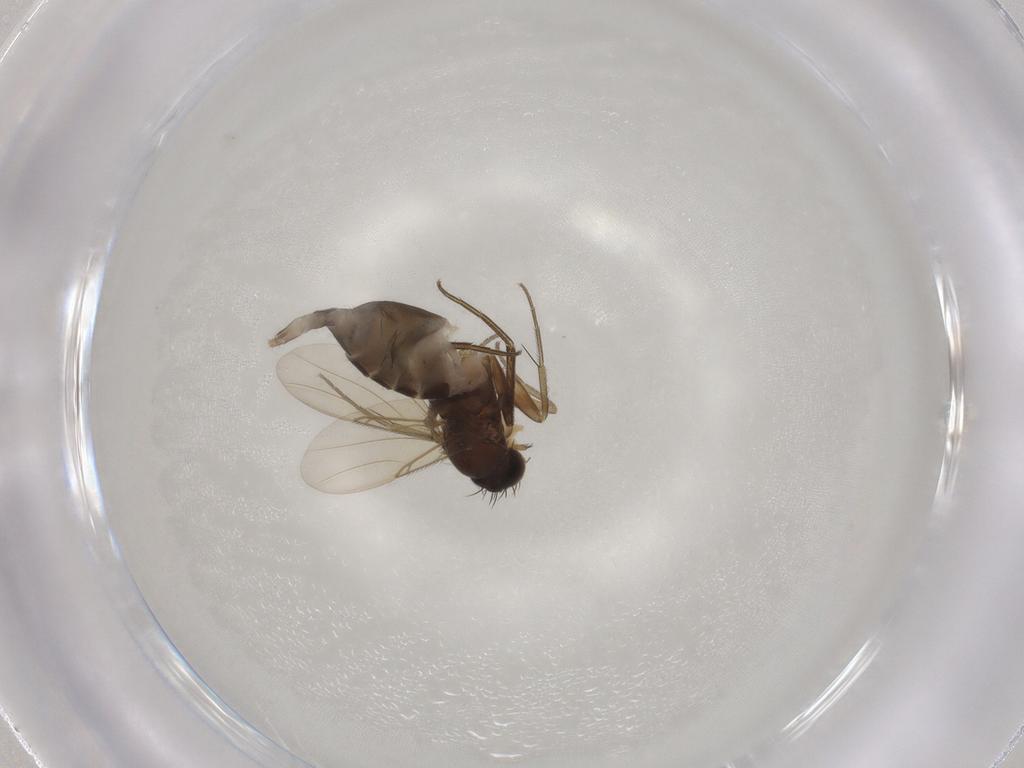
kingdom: Animalia
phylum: Arthropoda
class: Insecta
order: Diptera
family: Phoridae
